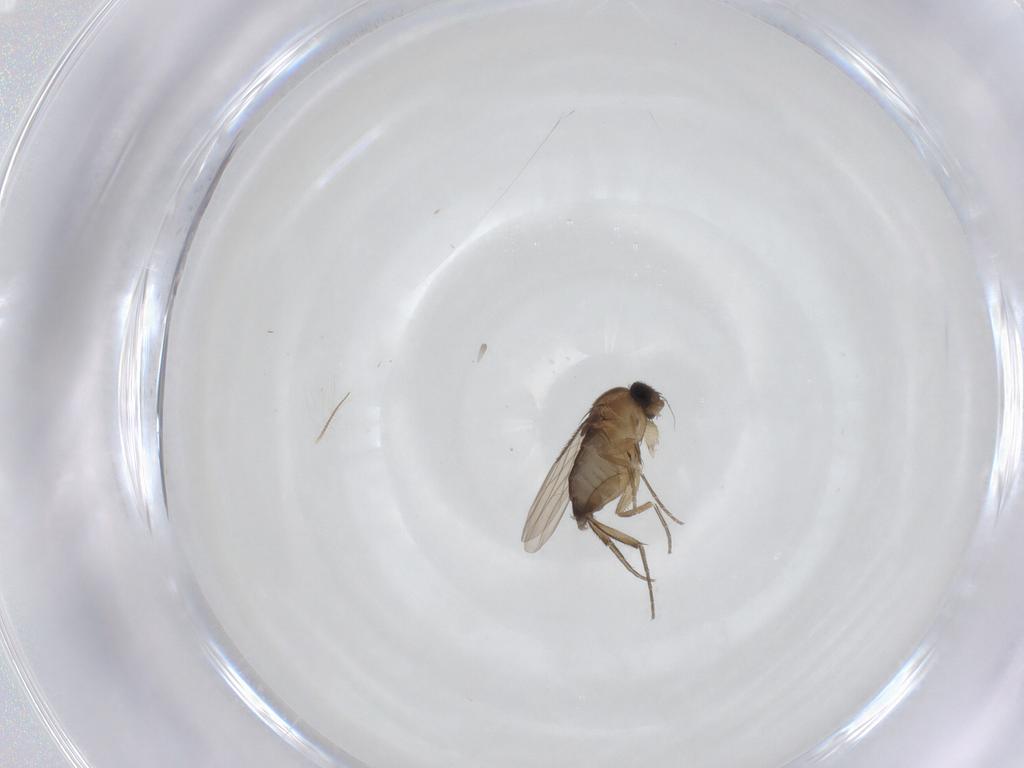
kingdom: Animalia
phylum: Arthropoda
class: Insecta
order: Diptera
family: Phoridae
